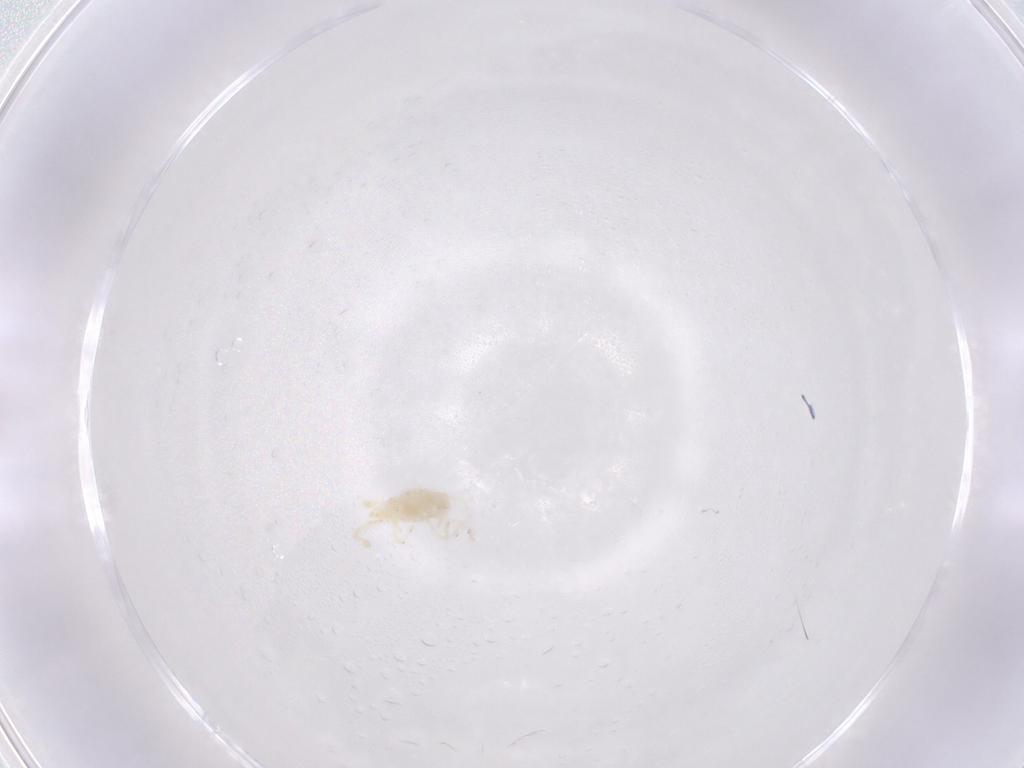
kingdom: Animalia
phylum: Arthropoda
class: Arachnida
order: Trombidiformes
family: Erythraeidae
